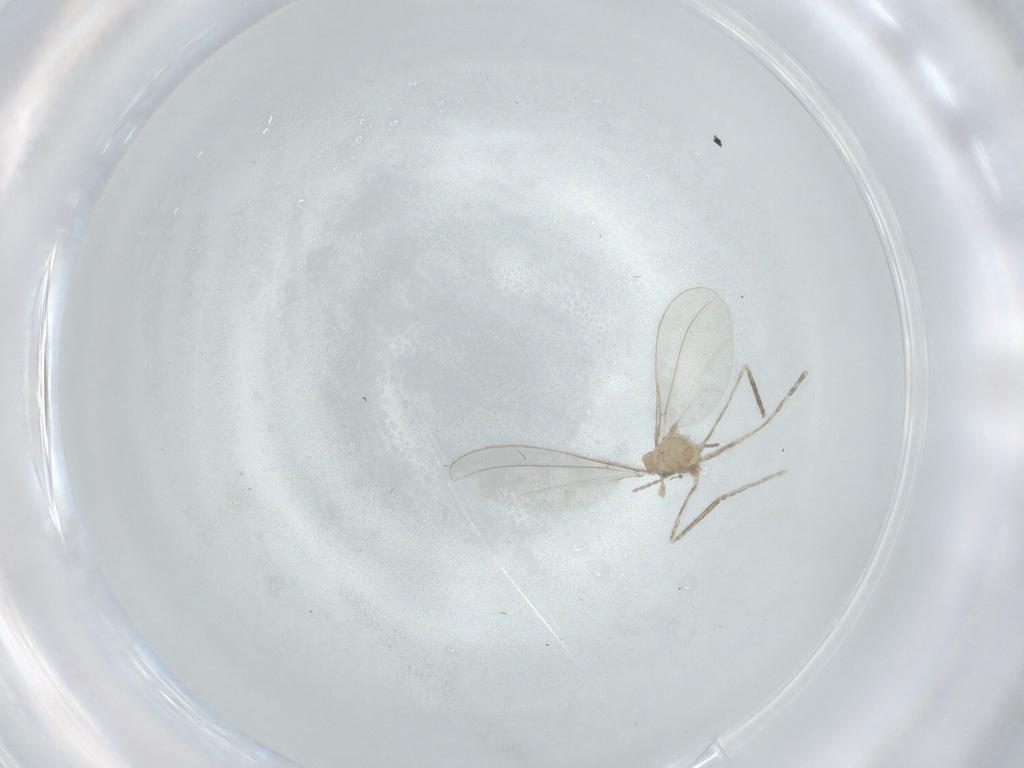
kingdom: Animalia
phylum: Arthropoda
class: Insecta
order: Diptera
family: Cecidomyiidae
